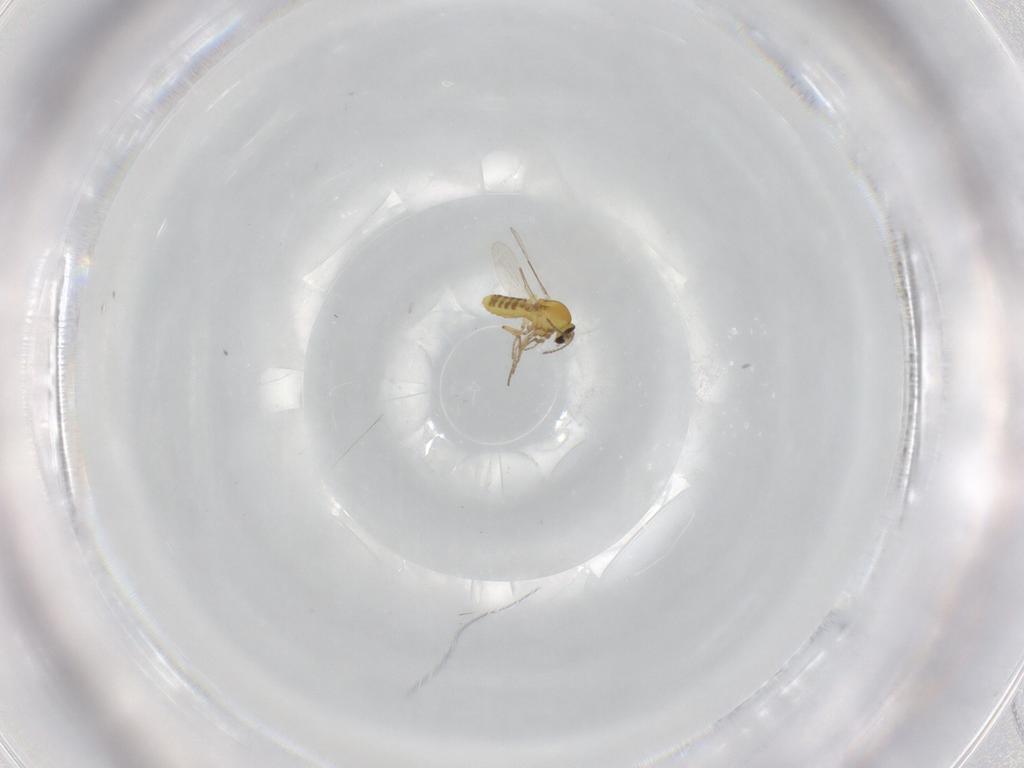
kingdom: Animalia
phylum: Arthropoda
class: Insecta
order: Diptera
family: Ceratopogonidae
